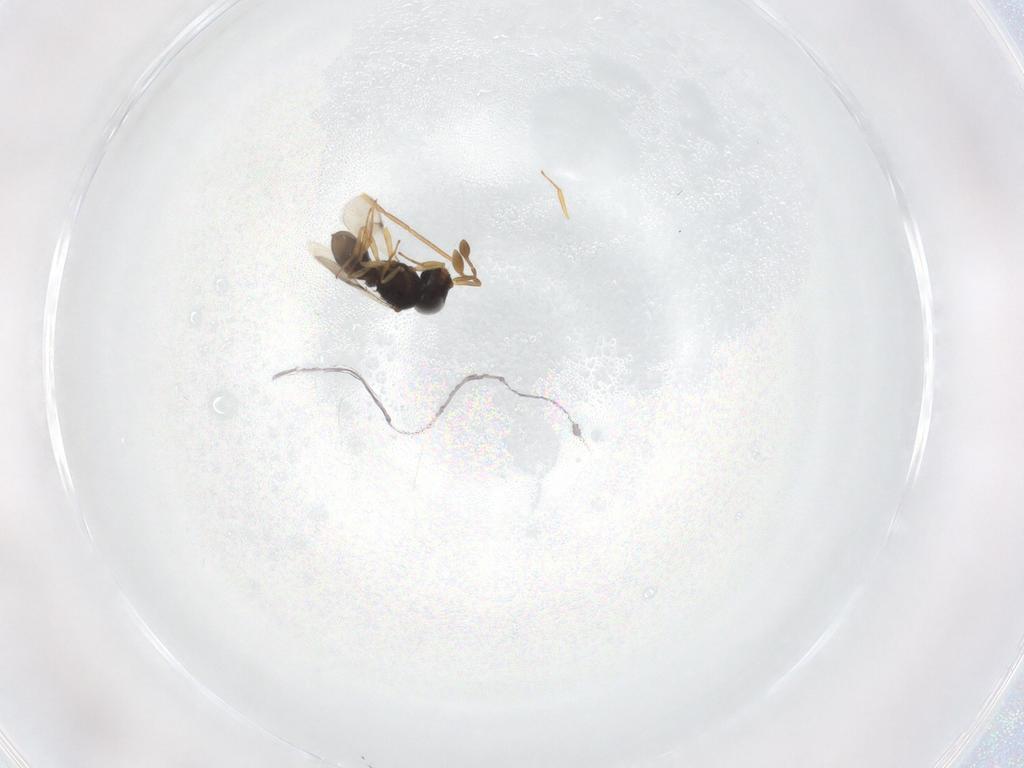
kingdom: Animalia
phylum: Arthropoda
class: Insecta
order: Hymenoptera
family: Scelionidae
